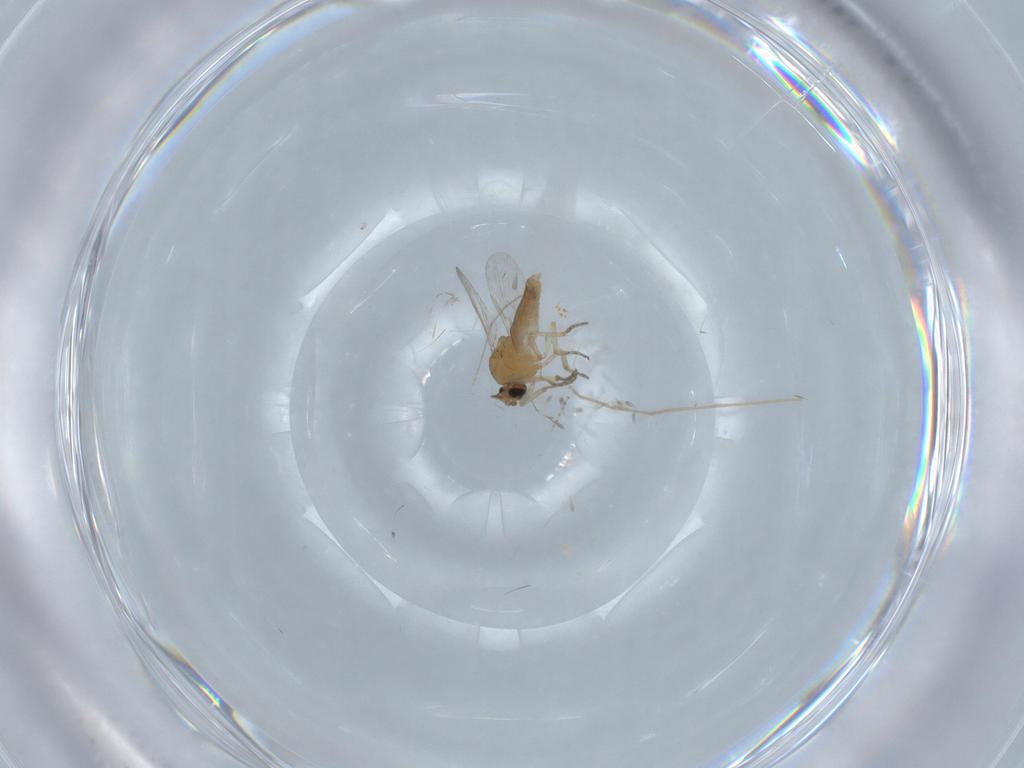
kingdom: Animalia
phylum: Arthropoda
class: Insecta
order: Diptera
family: Ceratopogonidae
